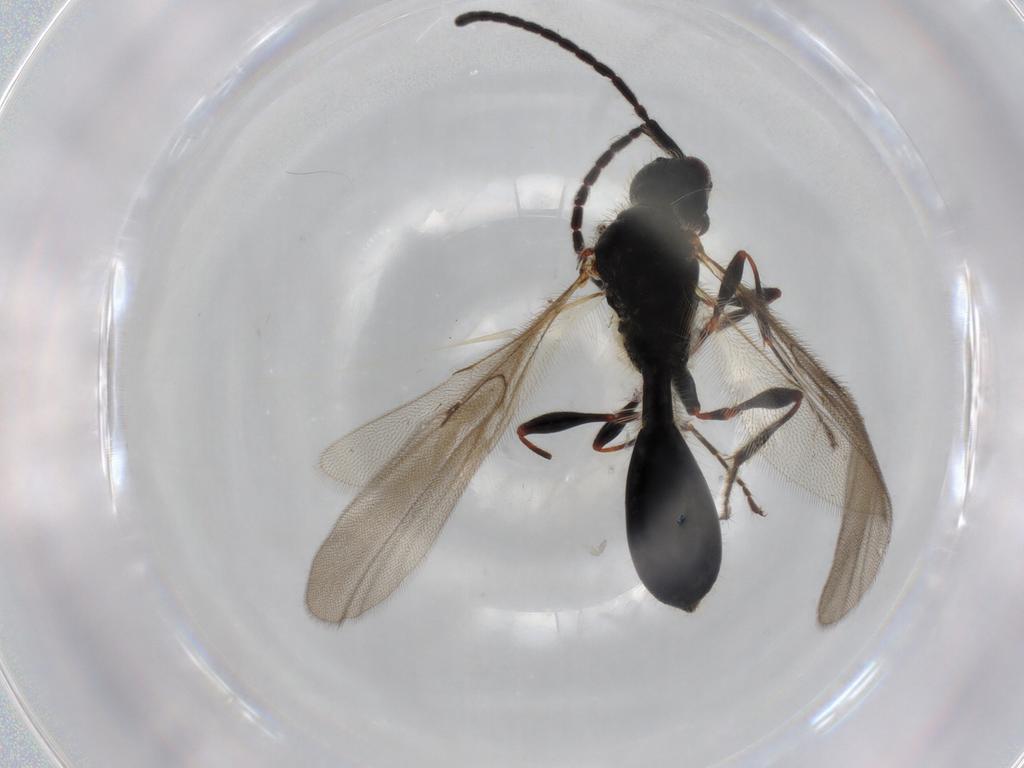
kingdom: Animalia
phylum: Arthropoda
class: Insecta
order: Hymenoptera
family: Diapriidae
